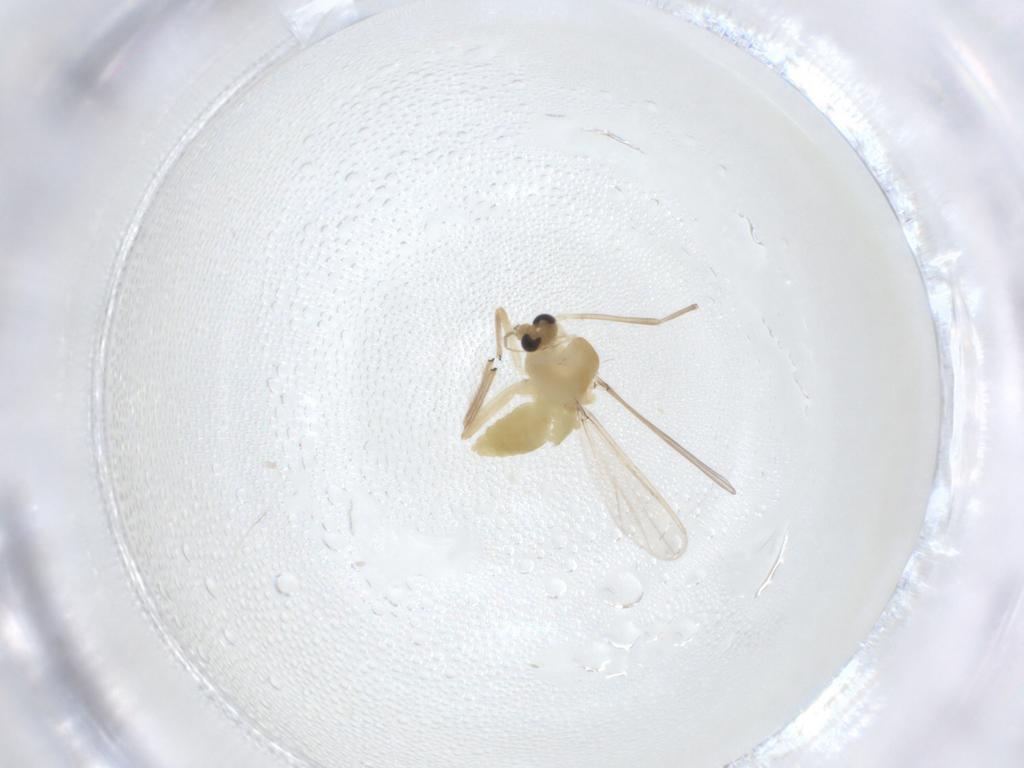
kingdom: Animalia
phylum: Arthropoda
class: Insecta
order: Diptera
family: Chironomidae
